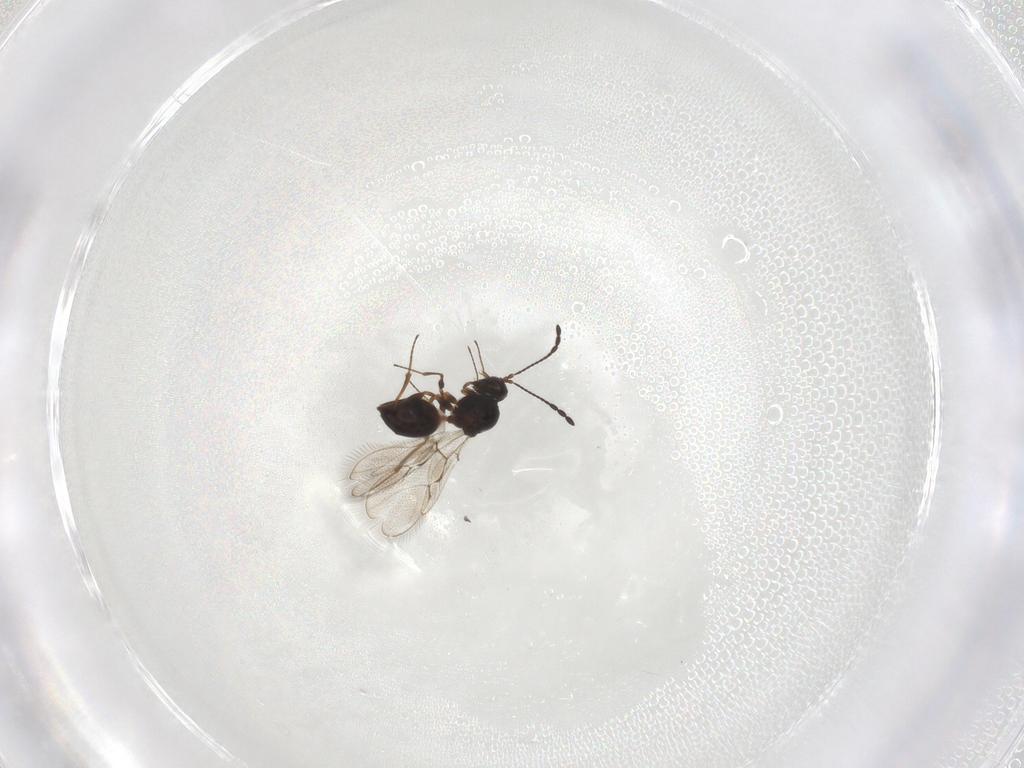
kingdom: Animalia
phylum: Arthropoda
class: Insecta
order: Hymenoptera
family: Figitidae
